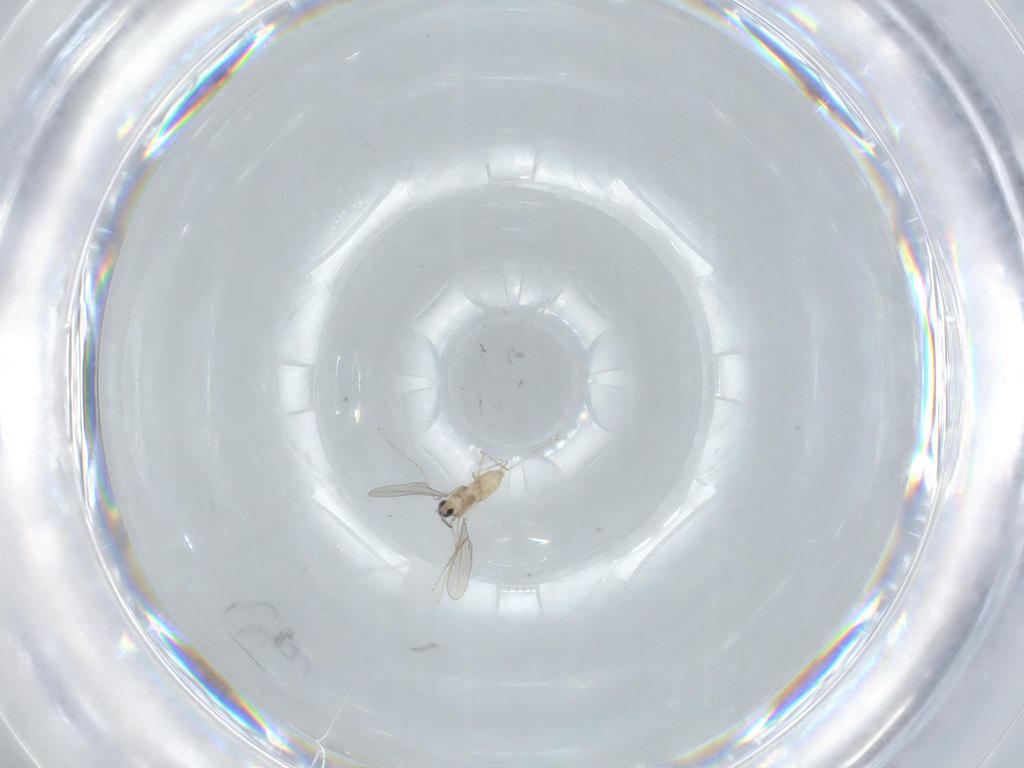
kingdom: Animalia
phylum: Arthropoda
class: Insecta
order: Diptera
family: Cecidomyiidae
